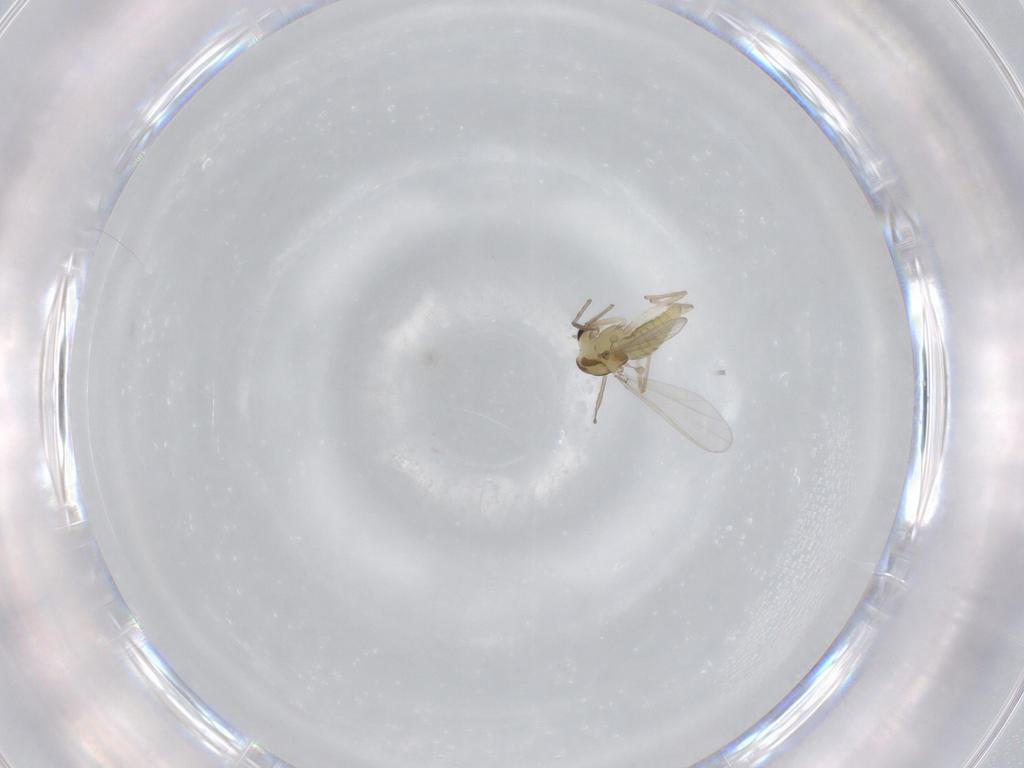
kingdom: Animalia
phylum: Arthropoda
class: Insecta
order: Diptera
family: Chironomidae
